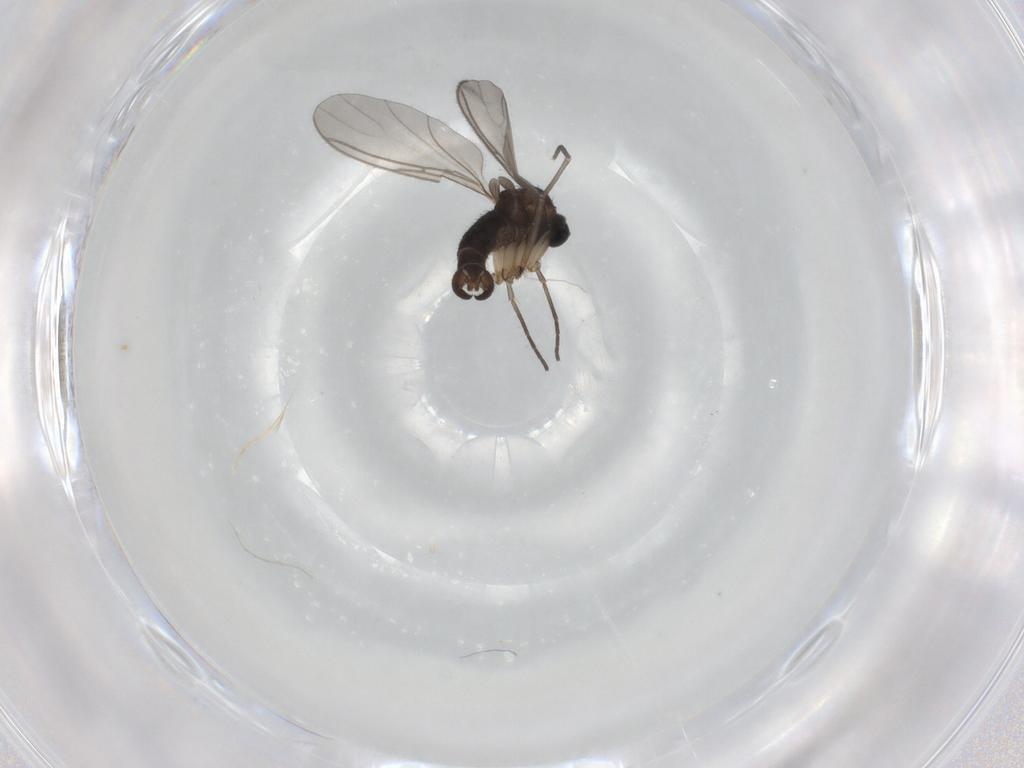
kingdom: Animalia
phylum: Arthropoda
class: Insecta
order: Diptera
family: Sciaridae
